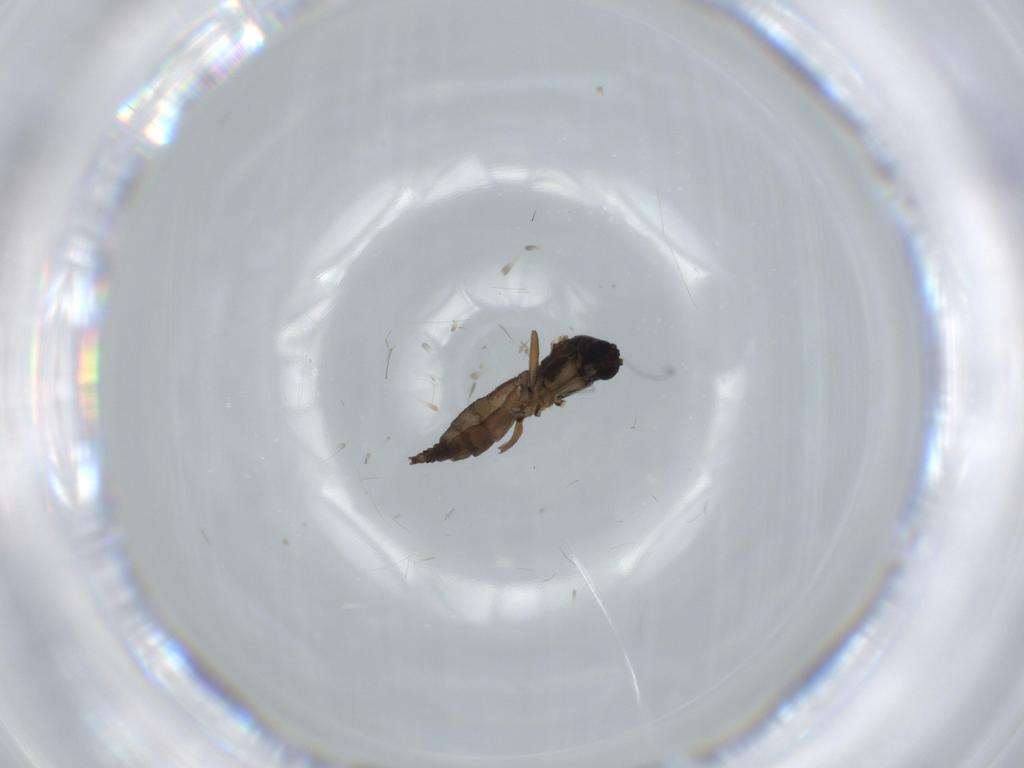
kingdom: Animalia
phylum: Arthropoda
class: Insecta
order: Diptera
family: Sciaridae
